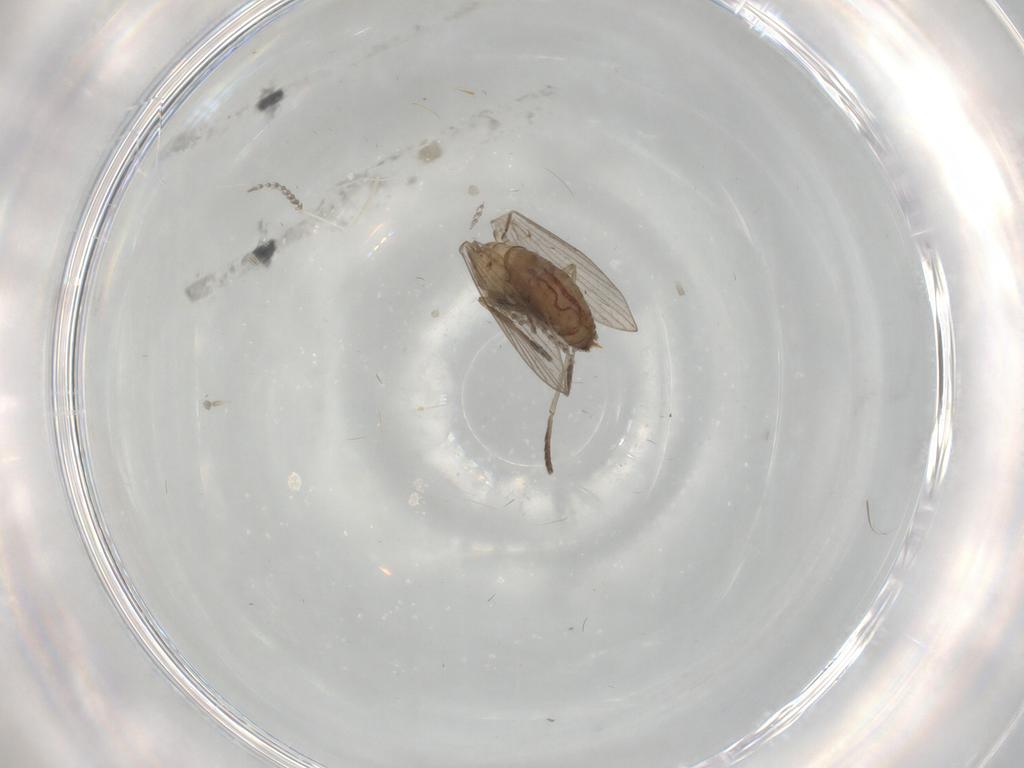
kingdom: Animalia
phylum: Arthropoda
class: Insecta
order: Diptera
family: Psychodidae
